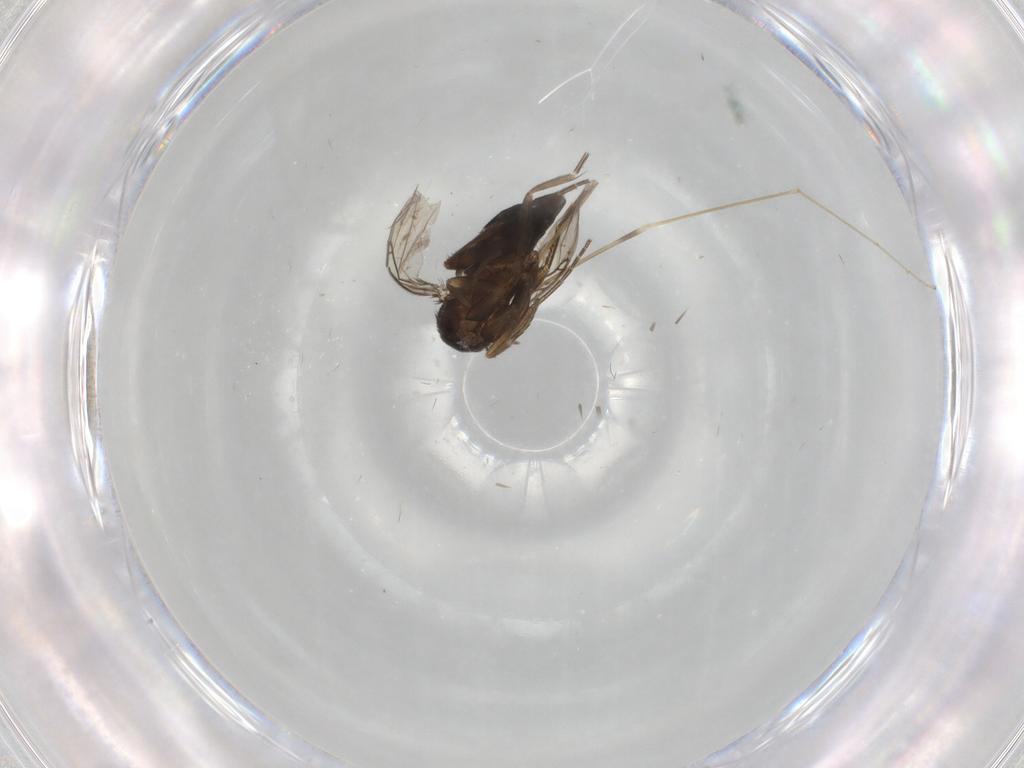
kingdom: Animalia
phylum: Arthropoda
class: Insecta
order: Diptera
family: Phoridae
